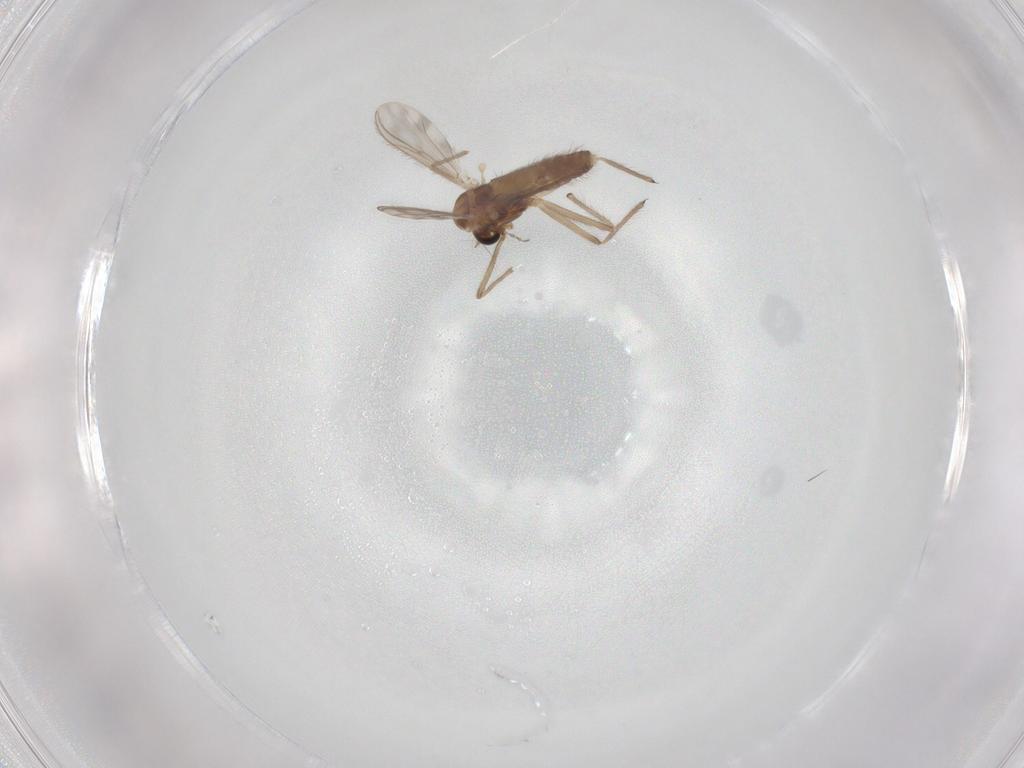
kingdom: Animalia
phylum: Arthropoda
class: Insecta
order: Diptera
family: Chironomidae
